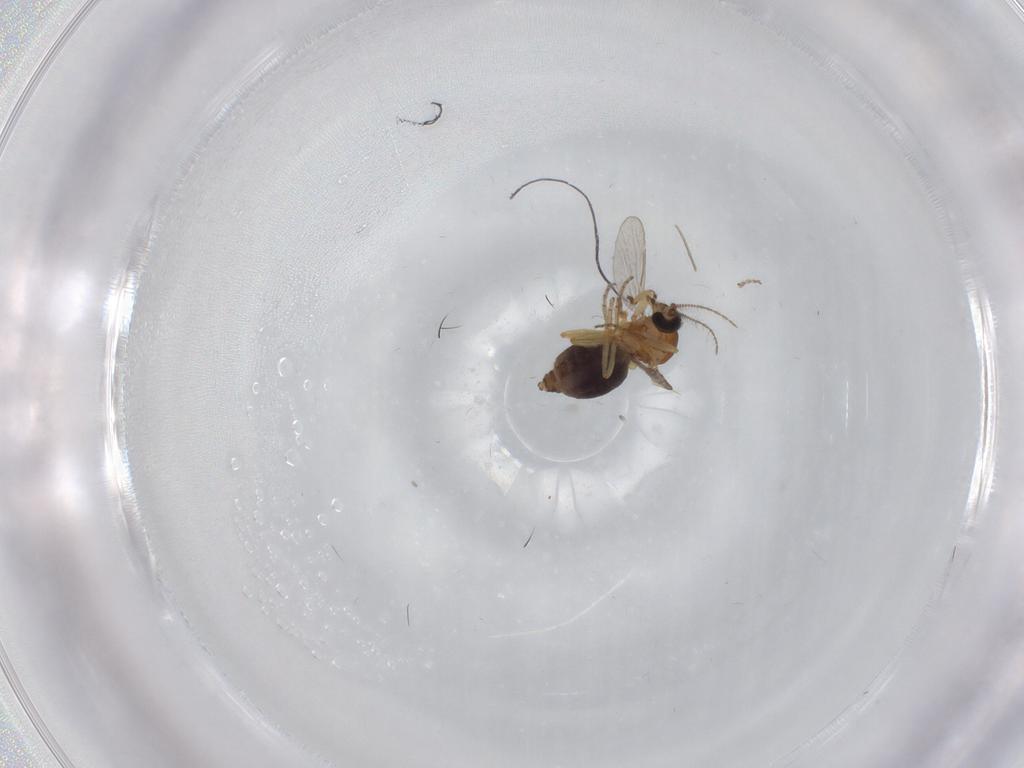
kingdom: Animalia
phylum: Arthropoda
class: Insecta
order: Diptera
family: Ceratopogonidae
